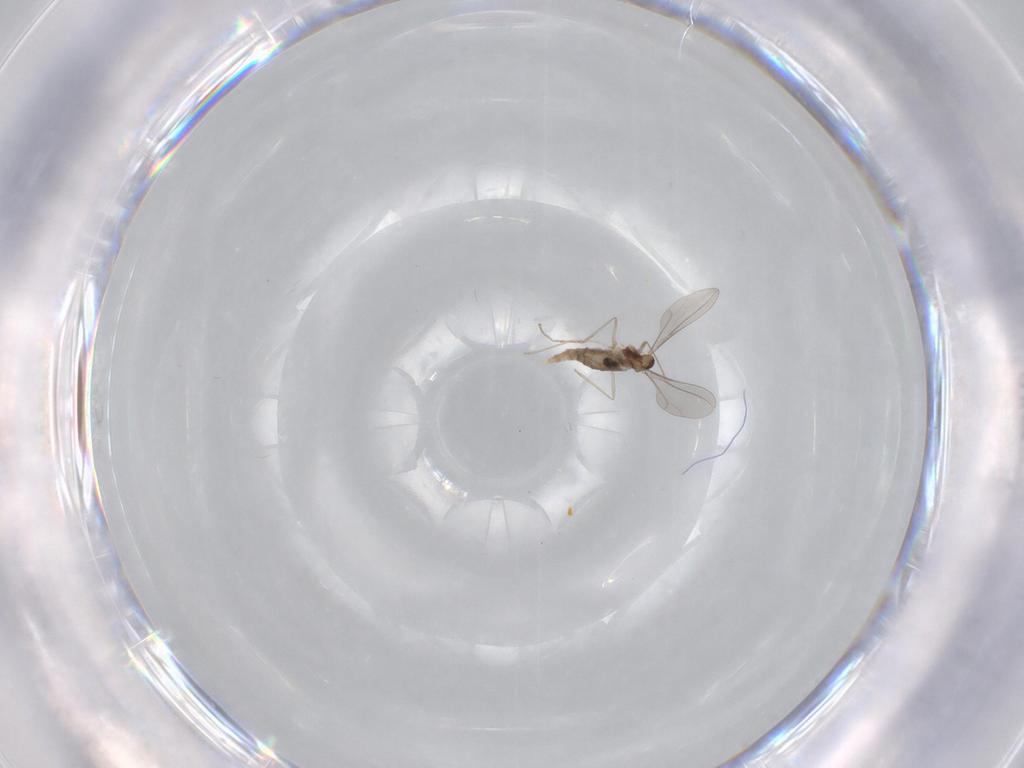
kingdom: Animalia
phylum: Arthropoda
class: Insecta
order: Diptera
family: Chironomidae
